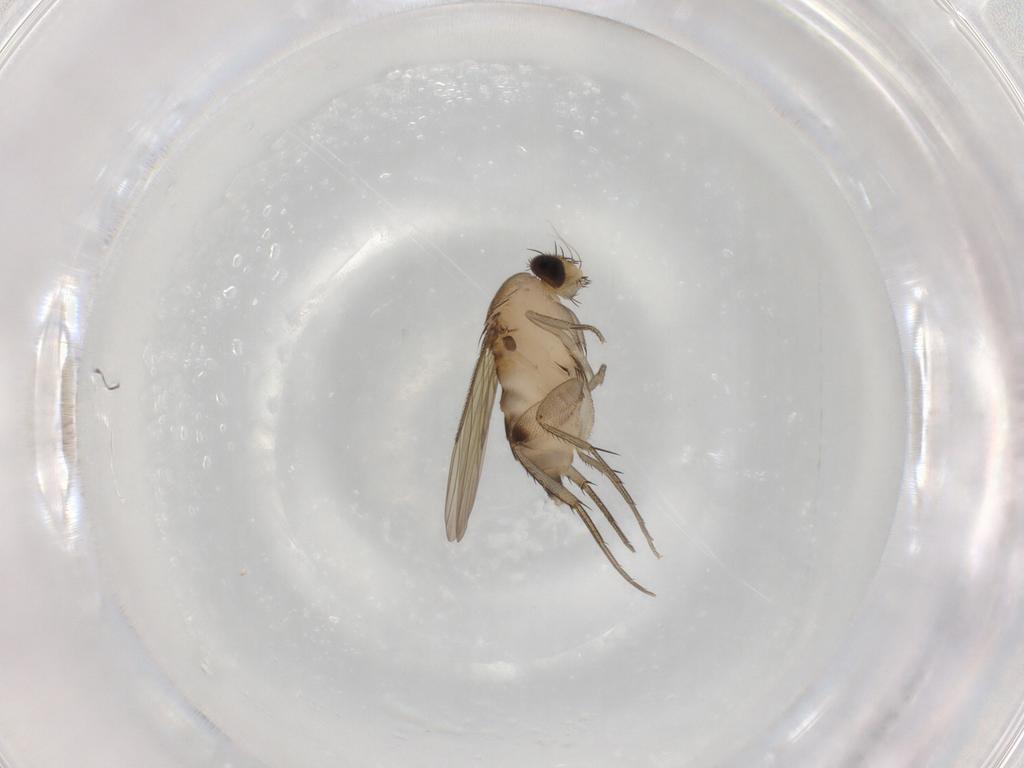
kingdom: Animalia
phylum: Arthropoda
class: Insecta
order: Diptera
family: Phoridae
